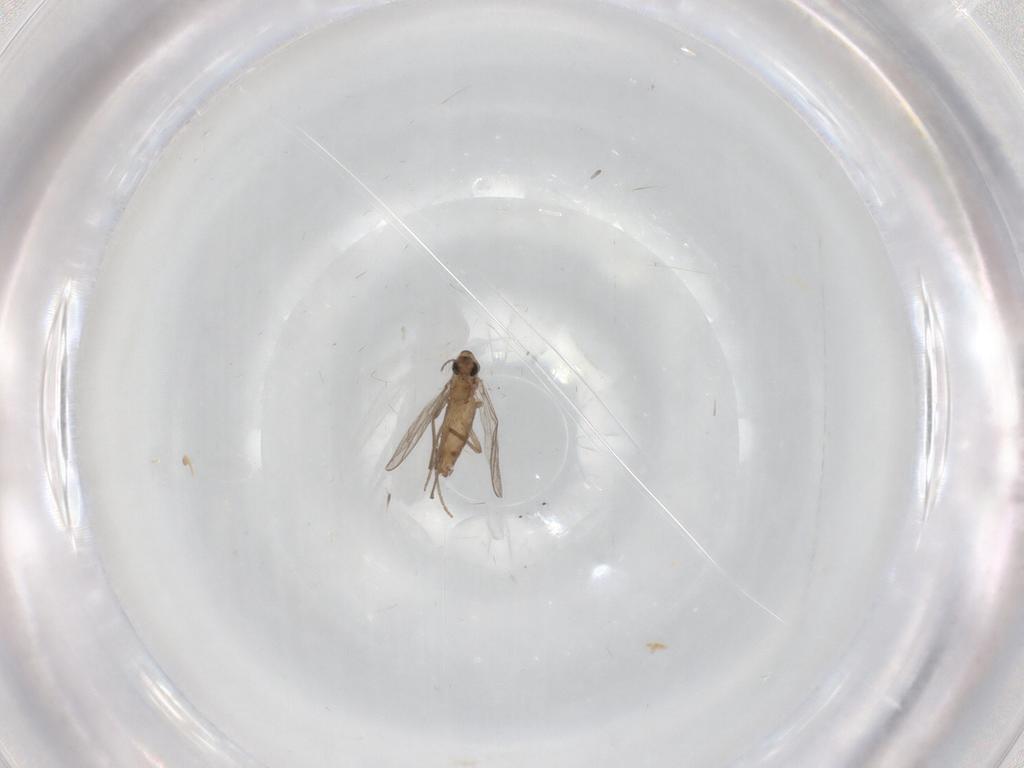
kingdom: Animalia
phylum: Arthropoda
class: Insecta
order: Diptera
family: Chironomidae
